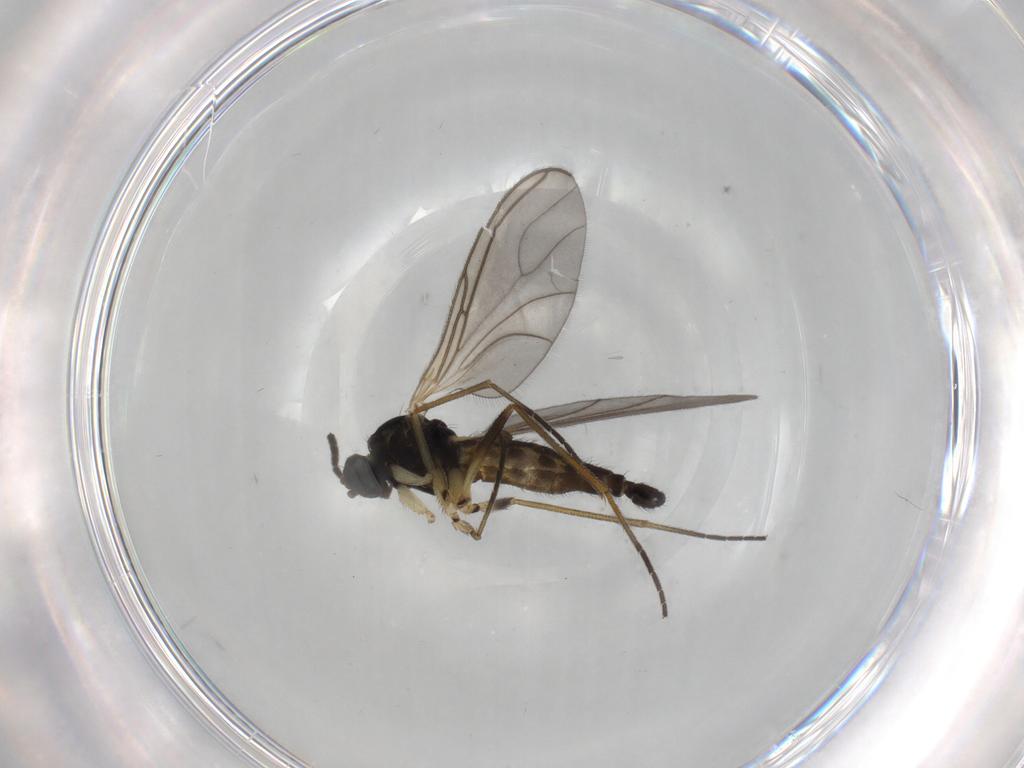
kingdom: Animalia
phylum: Arthropoda
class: Insecta
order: Diptera
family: Sciaridae
